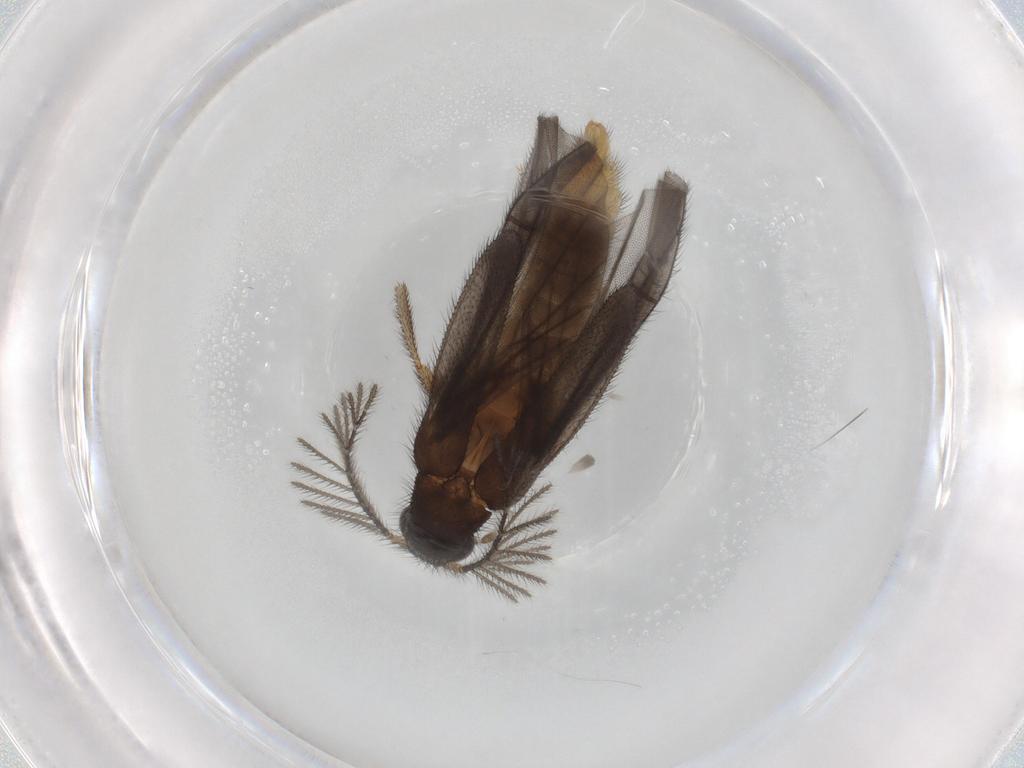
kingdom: Animalia
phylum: Arthropoda
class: Insecta
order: Coleoptera
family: Phengodidae
